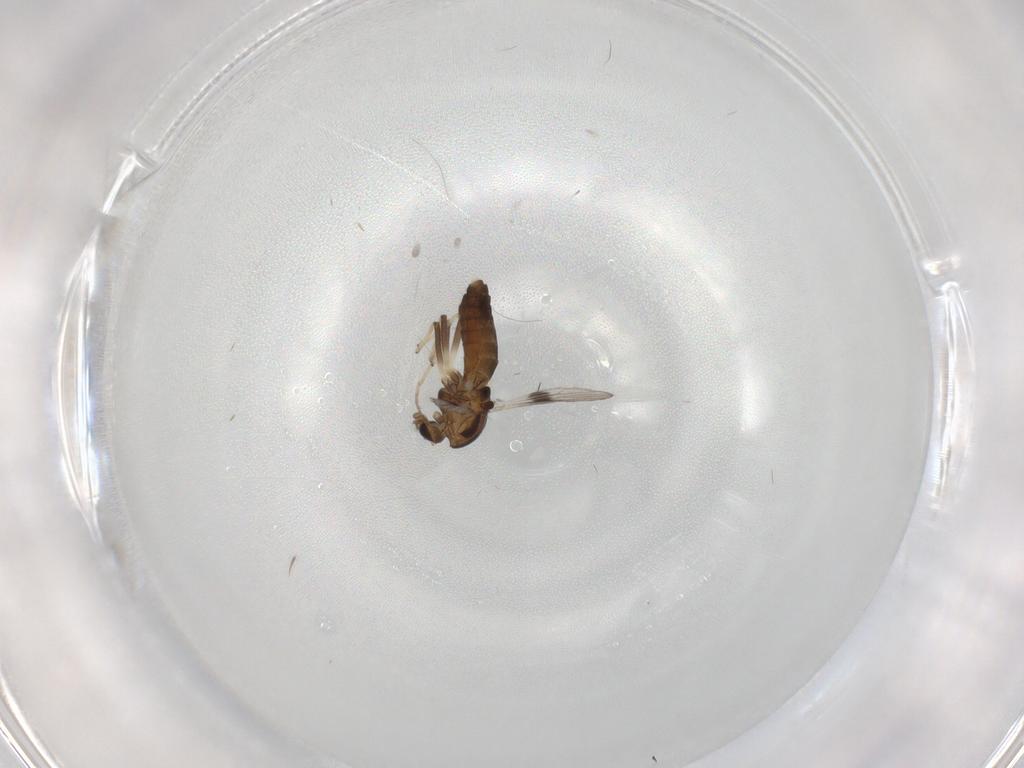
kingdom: Animalia
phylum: Arthropoda
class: Insecta
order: Diptera
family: Chironomidae
